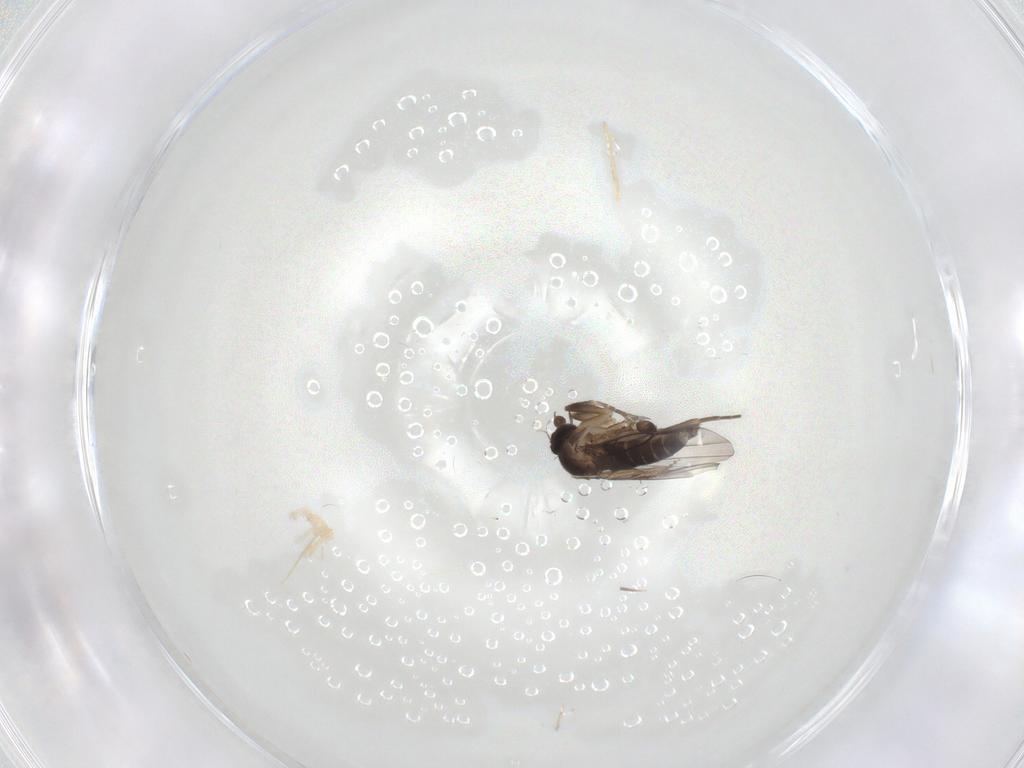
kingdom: Animalia
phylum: Arthropoda
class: Insecta
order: Diptera
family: Cecidomyiidae
